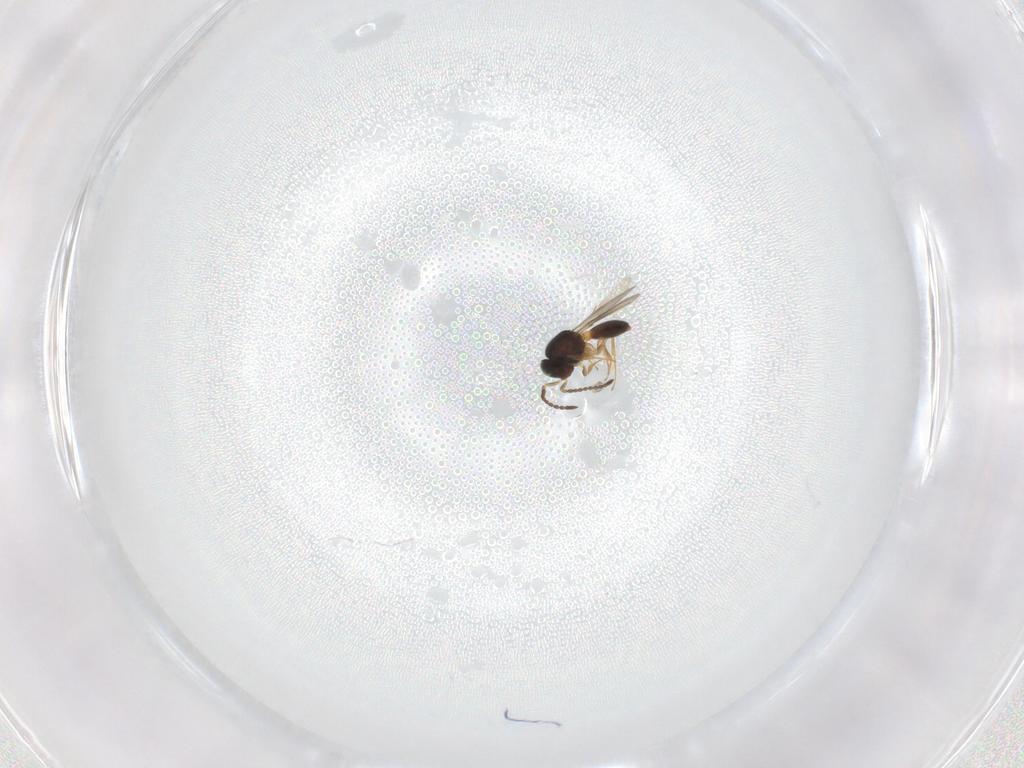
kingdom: Animalia
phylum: Arthropoda
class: Insecta
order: Hymenoptera
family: Scelionidae
